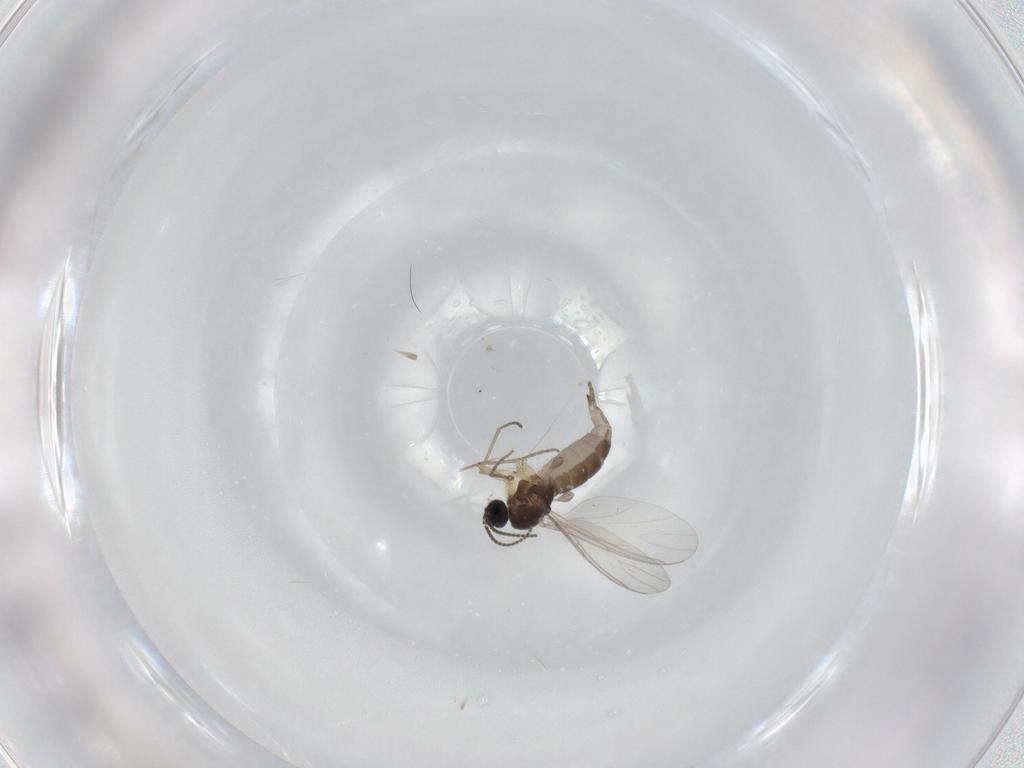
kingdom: Animalia
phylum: Arthropoda
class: Insecta
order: Diptera
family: Sciaridae
